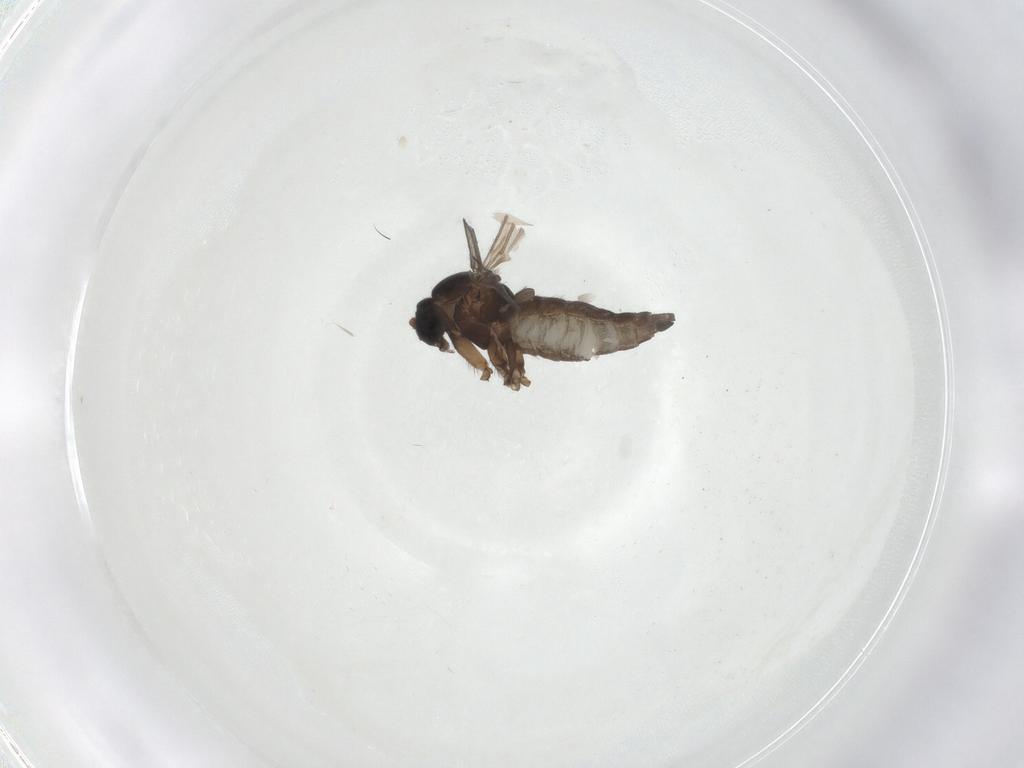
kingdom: Animalia
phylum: Arthropoda
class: Insecta
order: Diptera
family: Sciaridae
